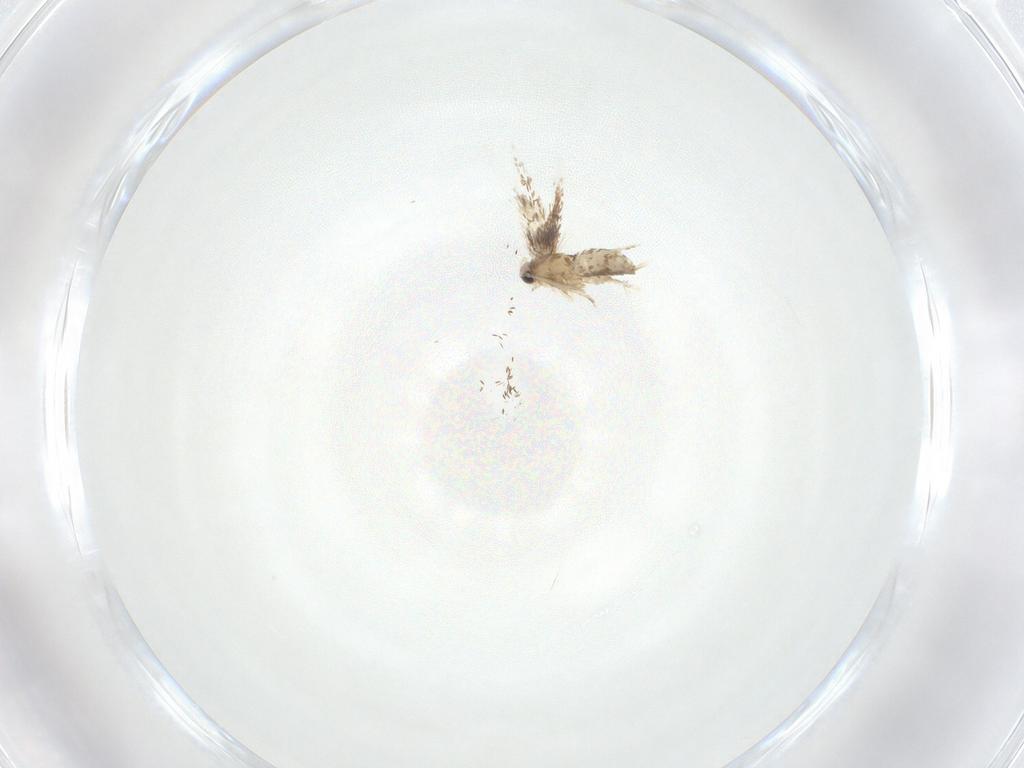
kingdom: Animalia
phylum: Arthropoda
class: Insecta
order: Lepidoptera
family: Nepticulidae
